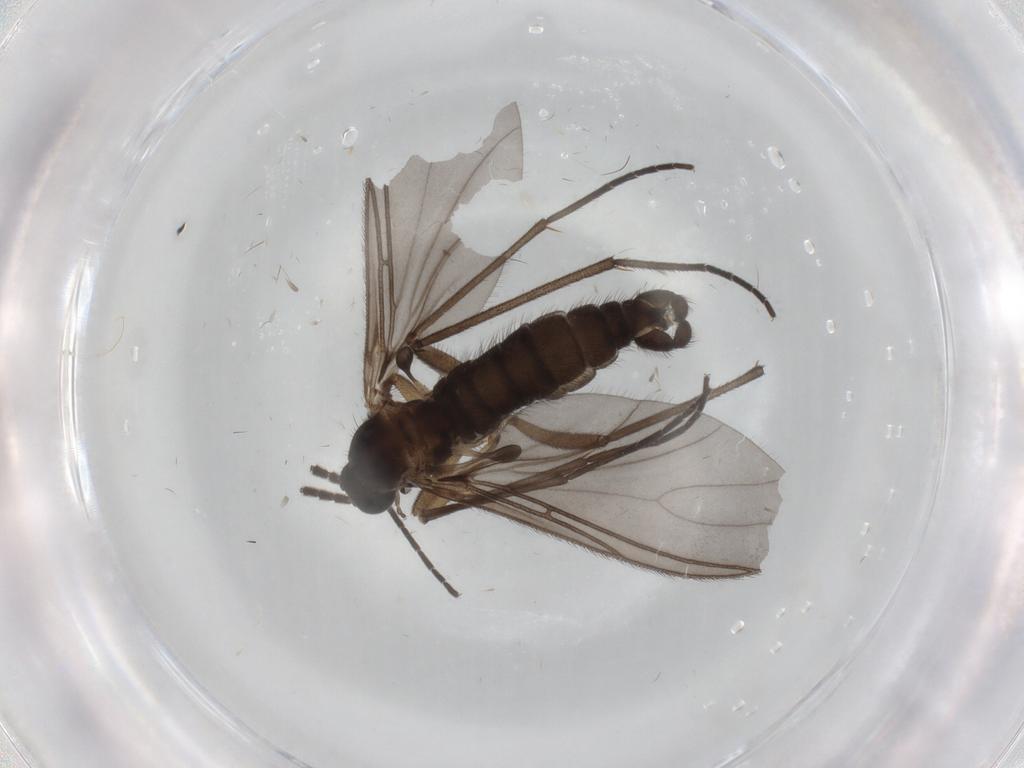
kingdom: Animalia
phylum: Arthropoda
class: Insecta
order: Diptera
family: Sciaridae
